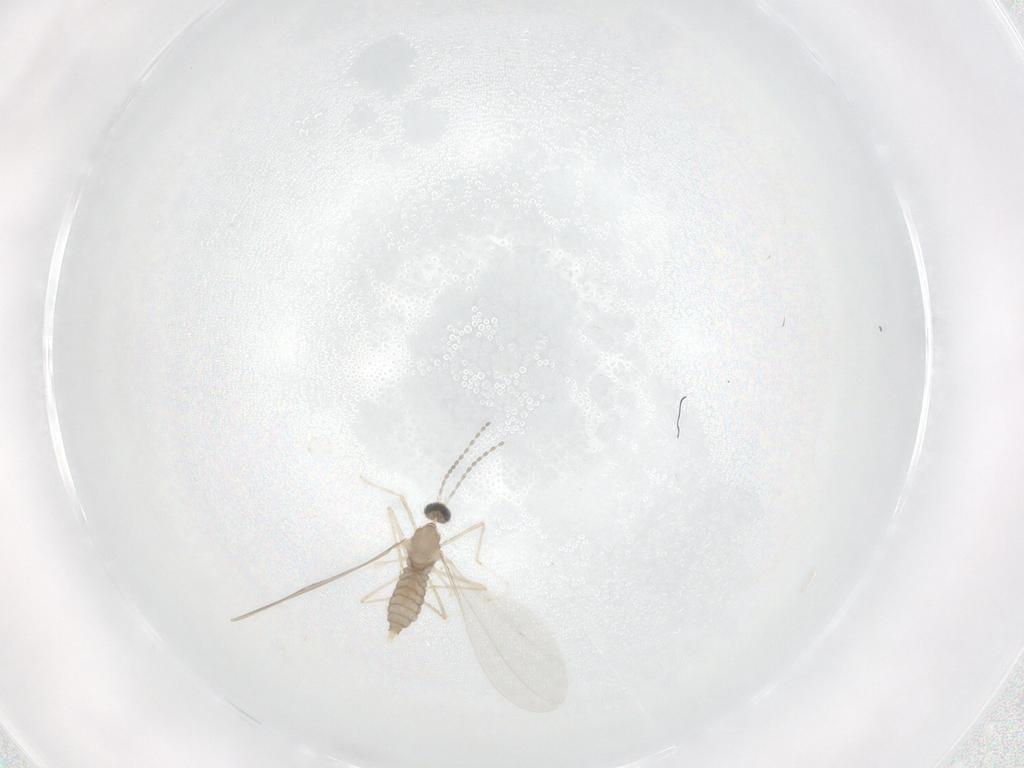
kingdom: Animalia
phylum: Arthropoda
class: Insecta
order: Diptera
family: Cecidomyiidae
